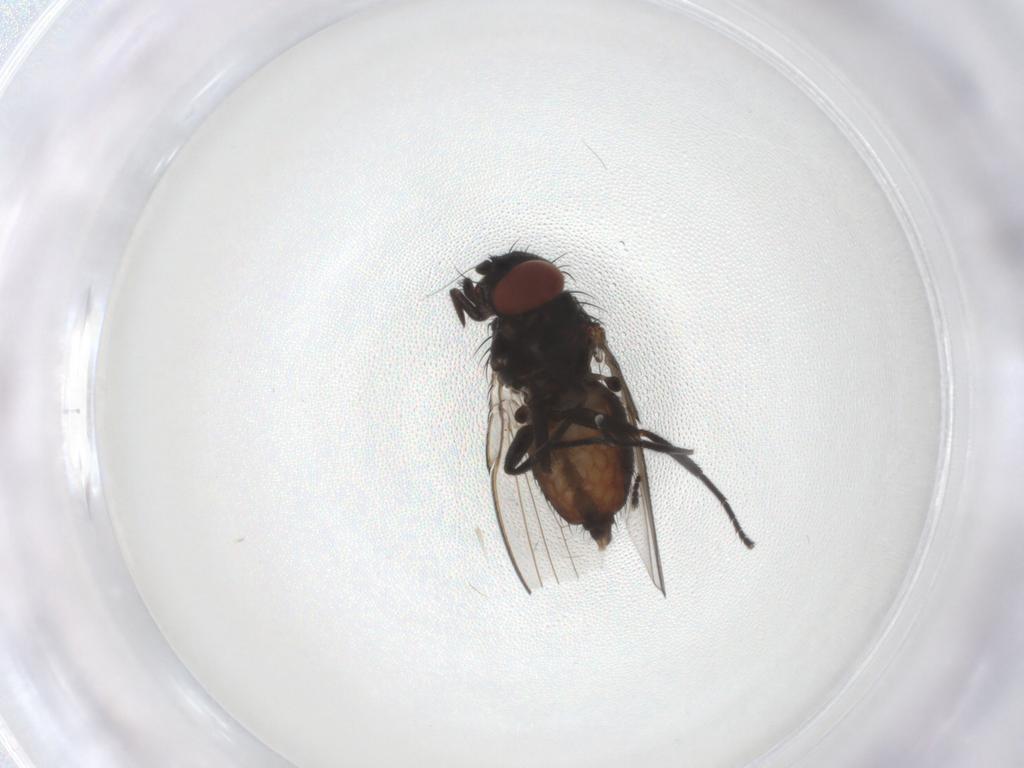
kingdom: Animalia
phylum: Arthropoda
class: Insecta
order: Diptera
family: Milichiidae
